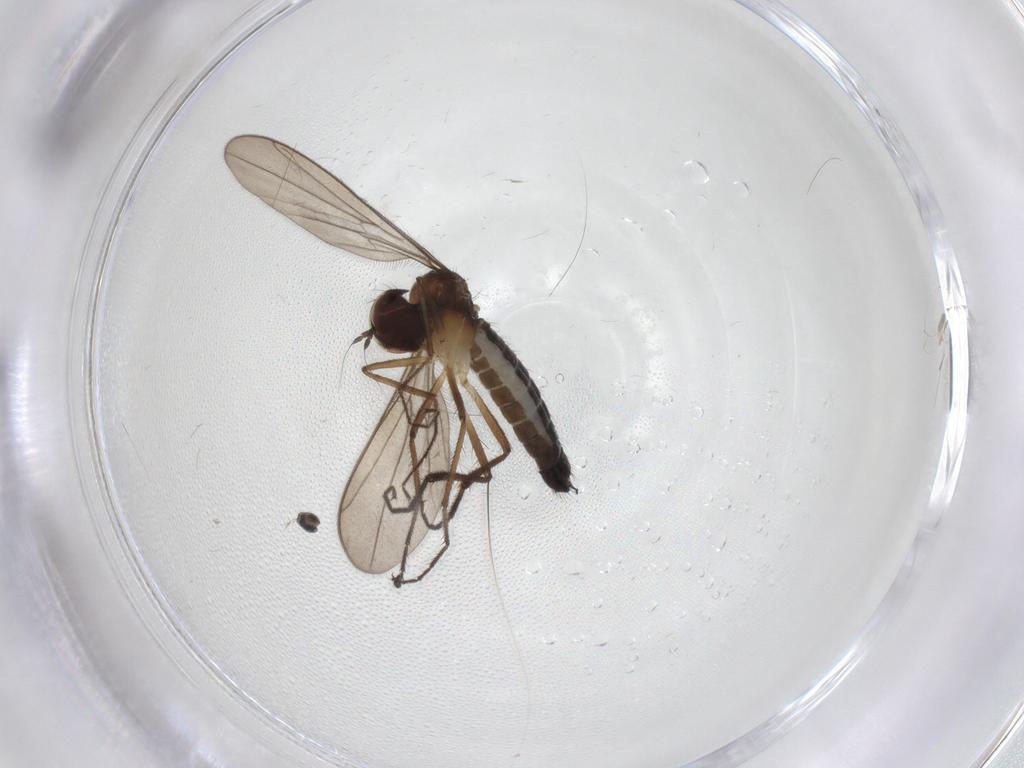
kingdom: Animalia
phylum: Arthropoda
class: Insecta
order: Diptera
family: Hybotidae
